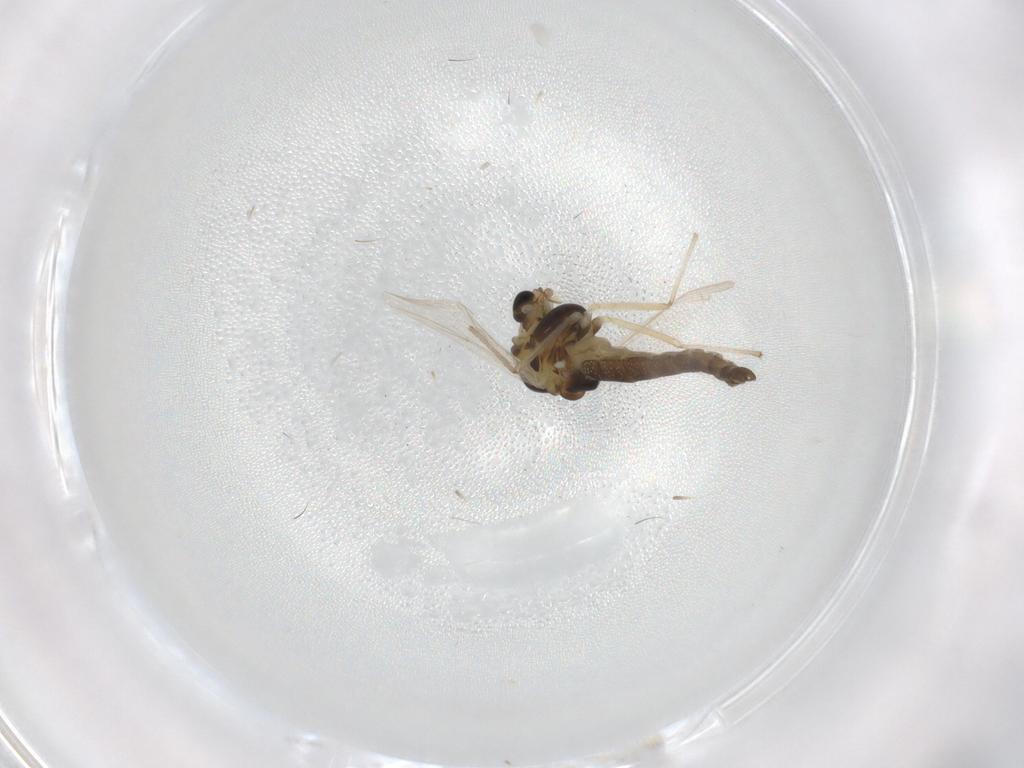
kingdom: Animalia
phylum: Arthropoda
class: Insecta
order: Diptera
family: Chironomidae
